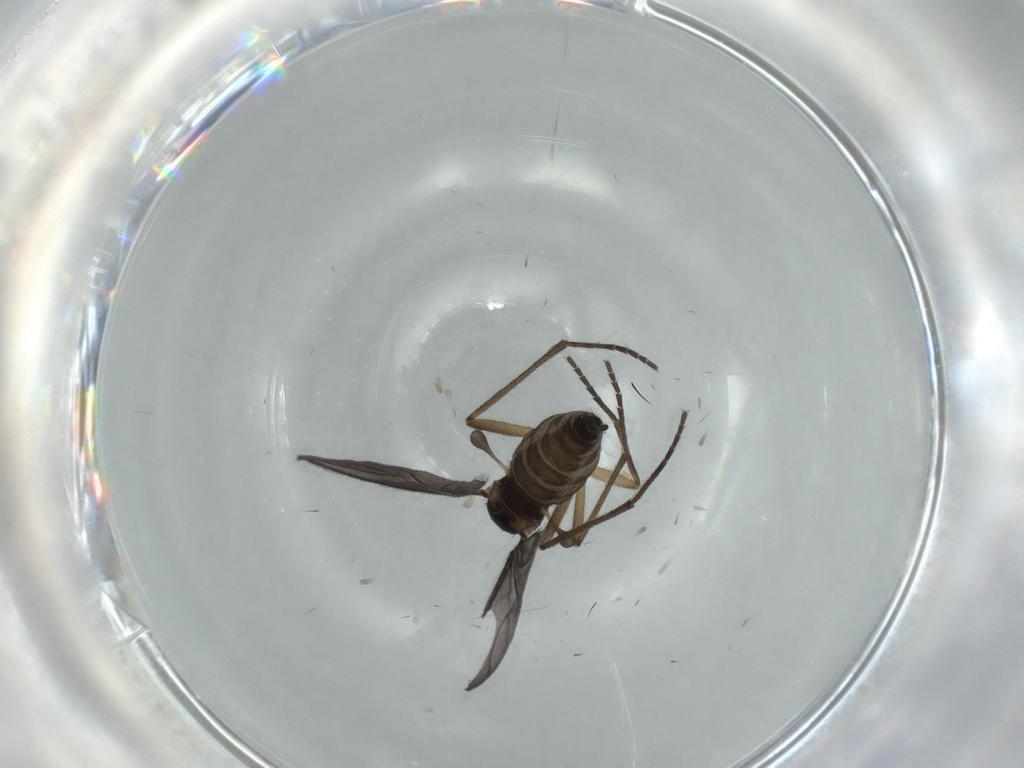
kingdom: Animalia
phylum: Arthropoda
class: Insecta
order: Diptera
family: Sciaridae
